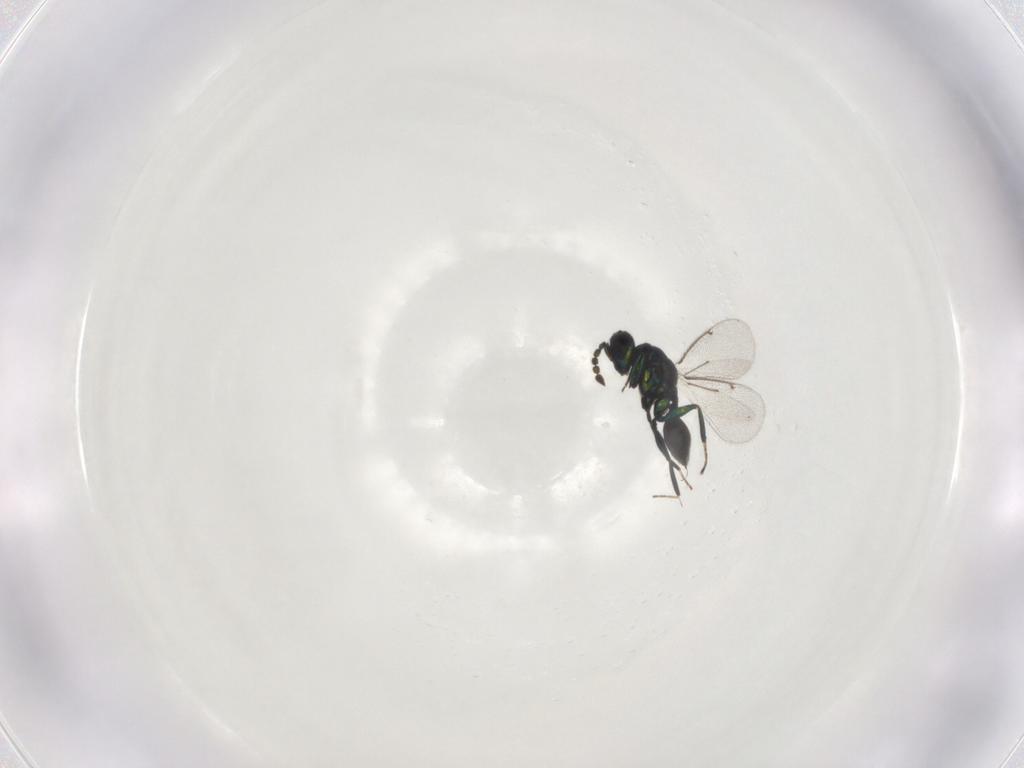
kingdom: Animalia
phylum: Arthropoda
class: Insecta
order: Hymenoptera
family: Eulophidae
